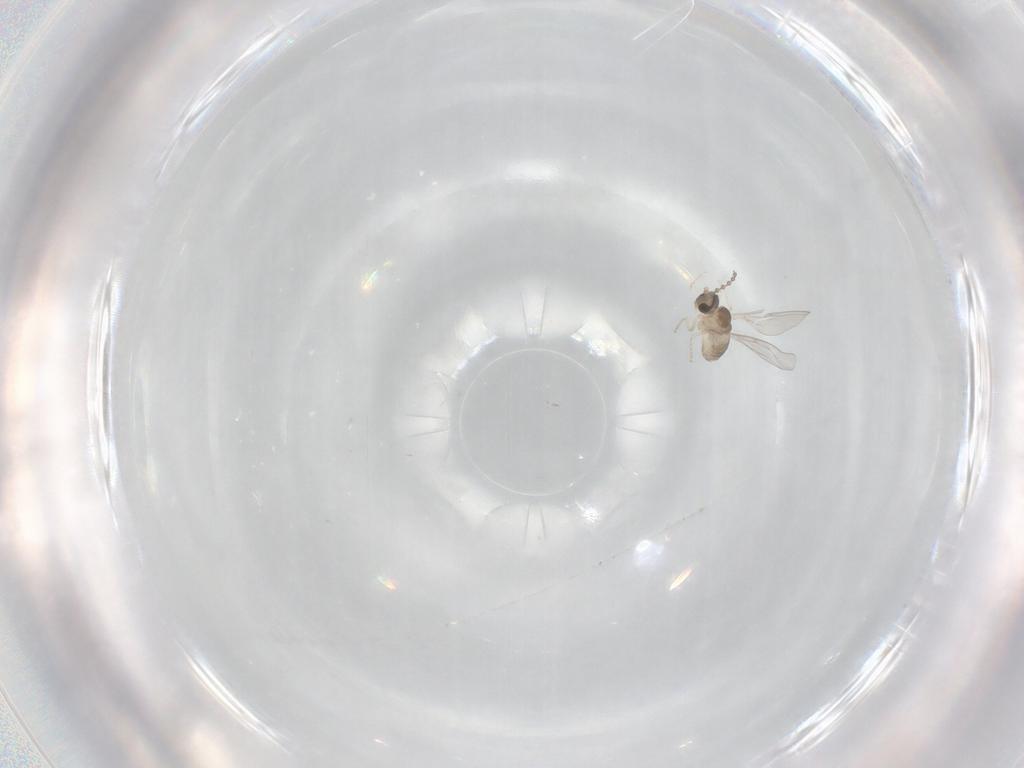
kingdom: Animalia
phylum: Arthropoda
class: Insecta
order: Diptera
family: Cecidomyiidae
